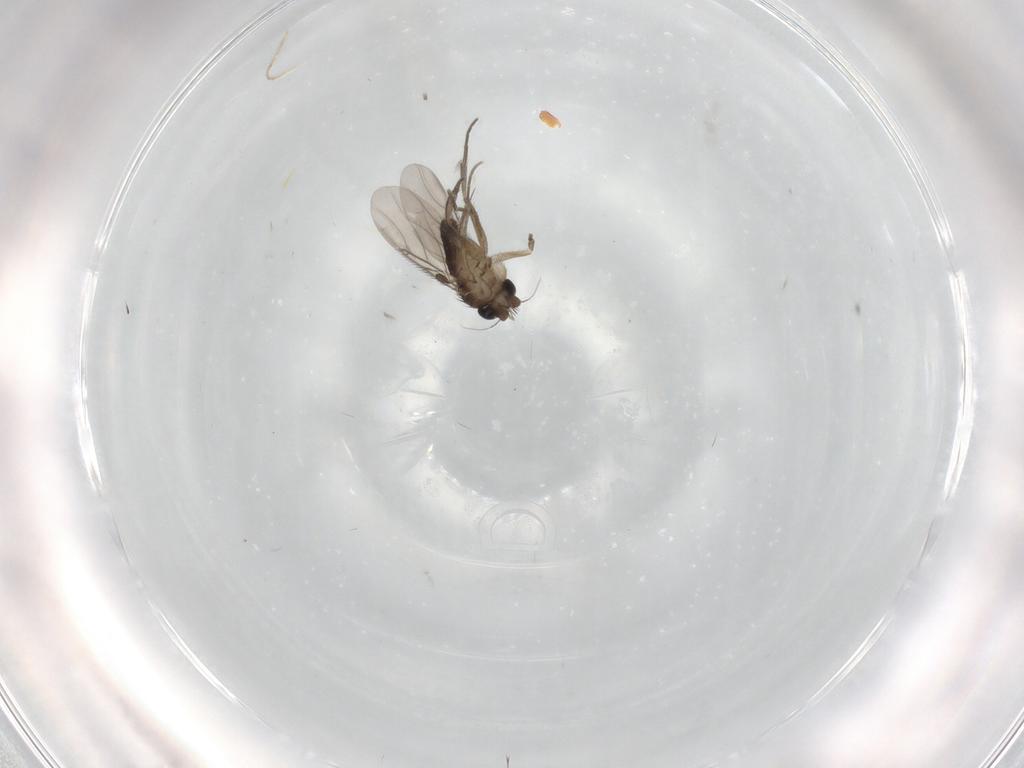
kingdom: Animalia
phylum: Arthropoda
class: Insecta
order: Diptera
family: Phoridae
